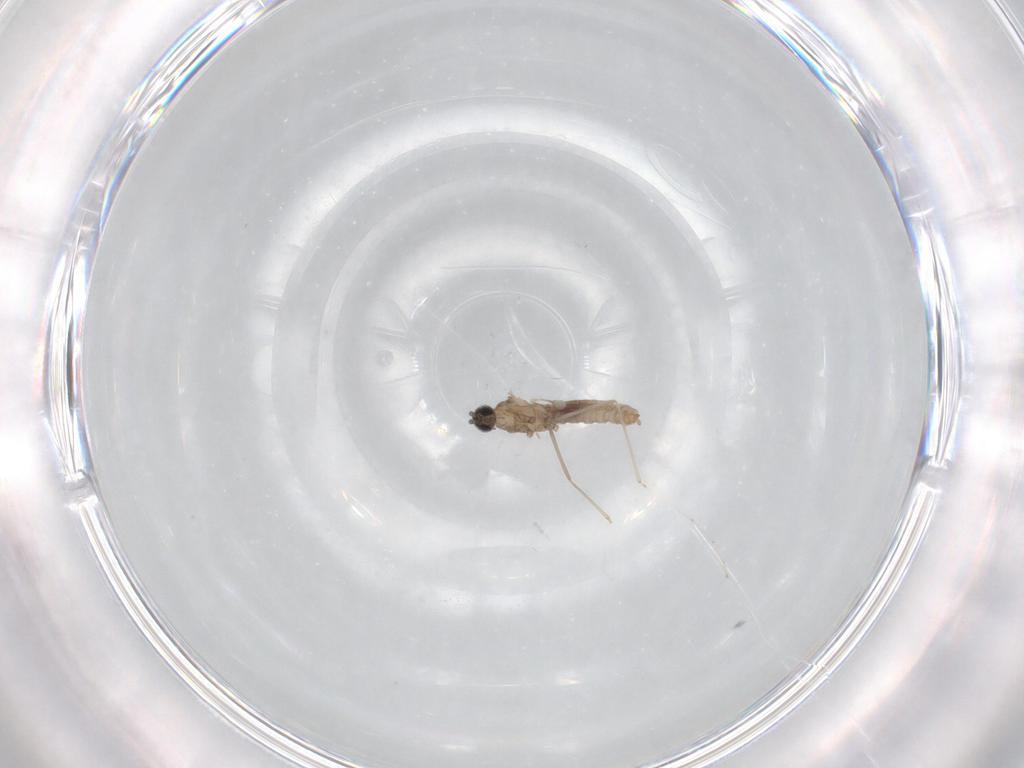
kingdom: Animalia
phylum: Arthropoda
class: Insecta
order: Diptera
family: Cecidomyiidae
